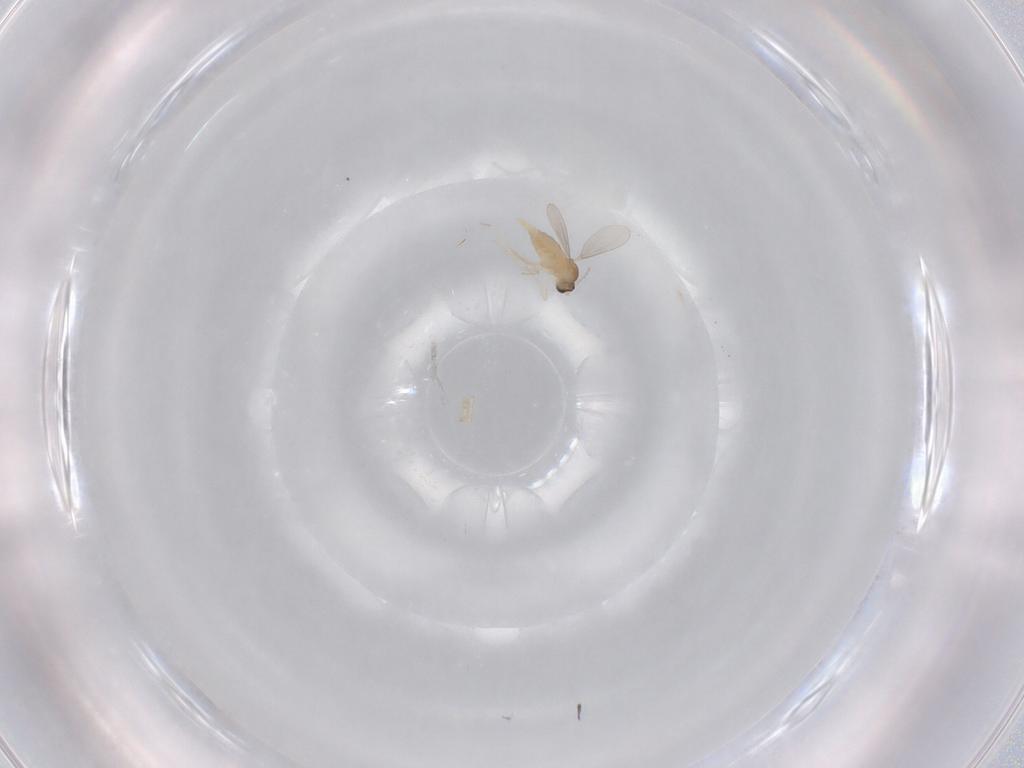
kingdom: Animalia
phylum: Arthropoda
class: Insecta
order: Diptera
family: Cecidomyiidae
